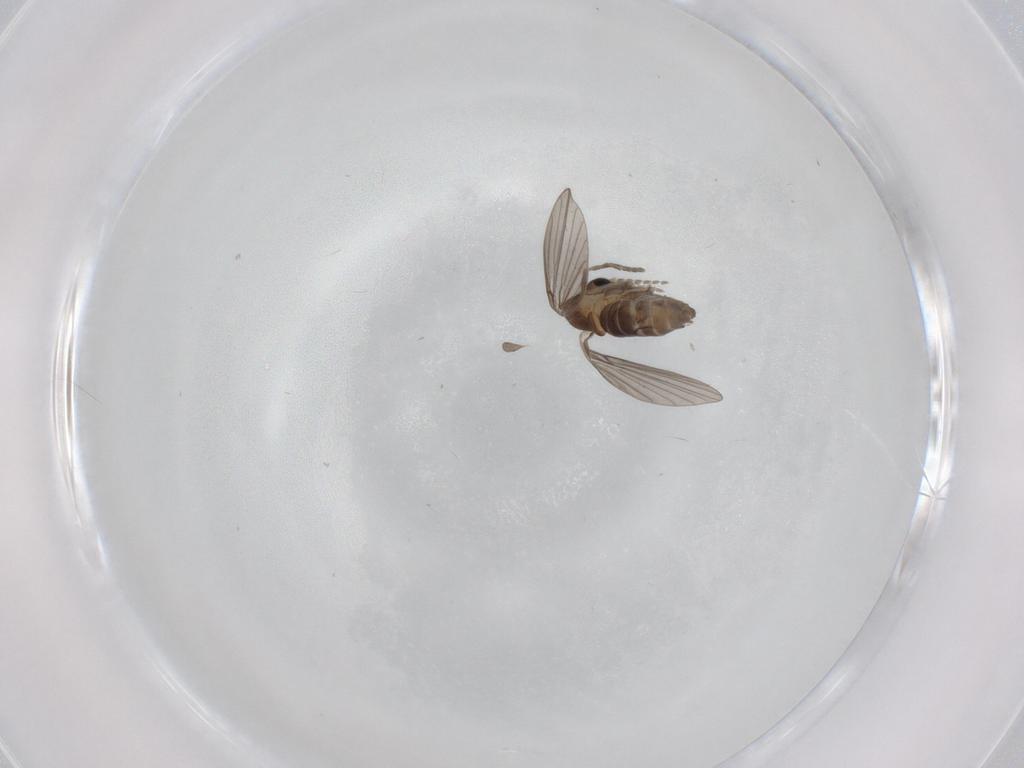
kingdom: Animalia
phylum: Arthropoda
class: Insecta
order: Diptera
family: Psychodidae
